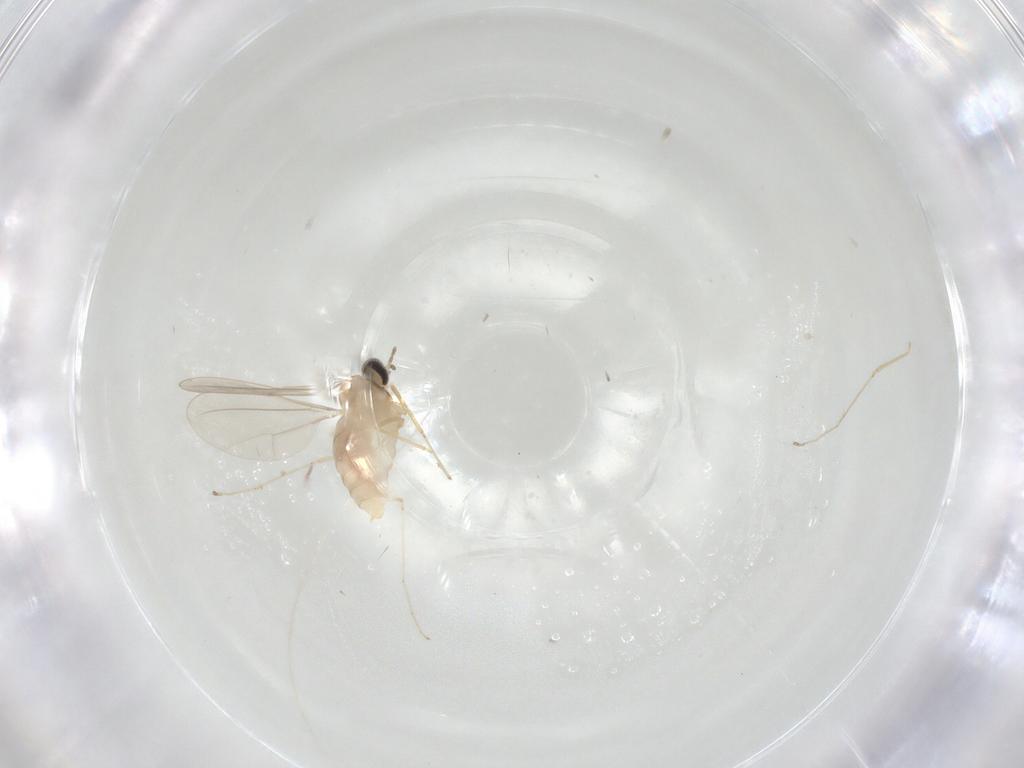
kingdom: Animalia
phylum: Arthropoda
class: Insecta
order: Diptera
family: Cecidomyiidae
